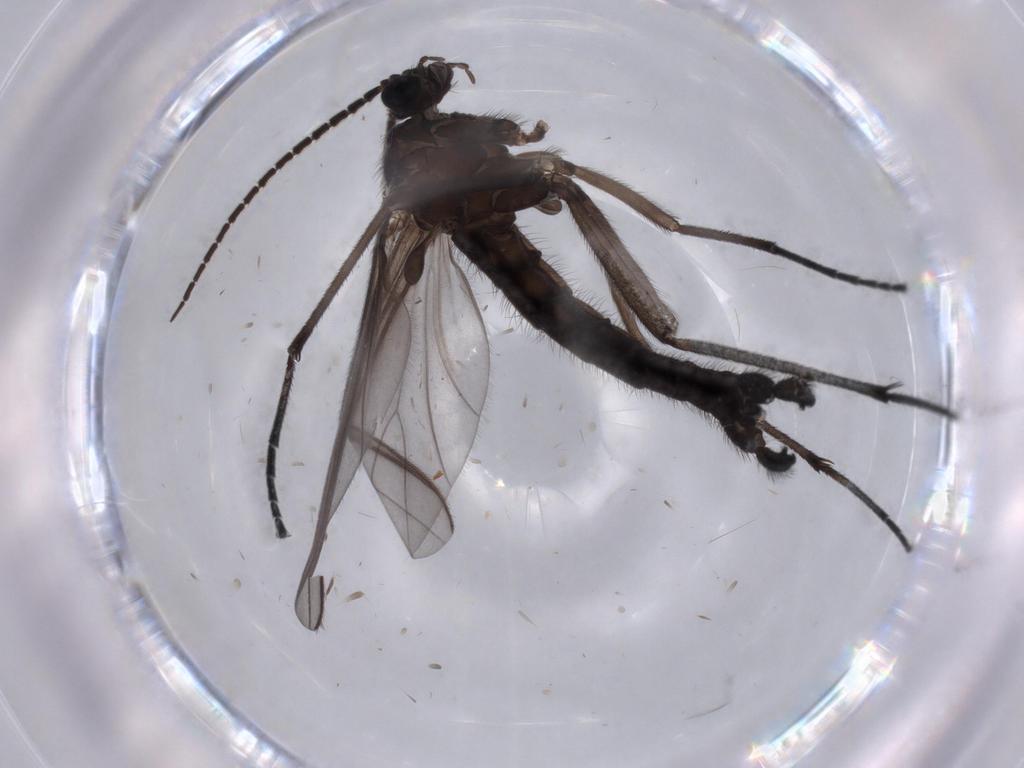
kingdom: Animalia
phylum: Arthropoda
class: Insecta
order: Diptera
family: Cecidomyiidae
